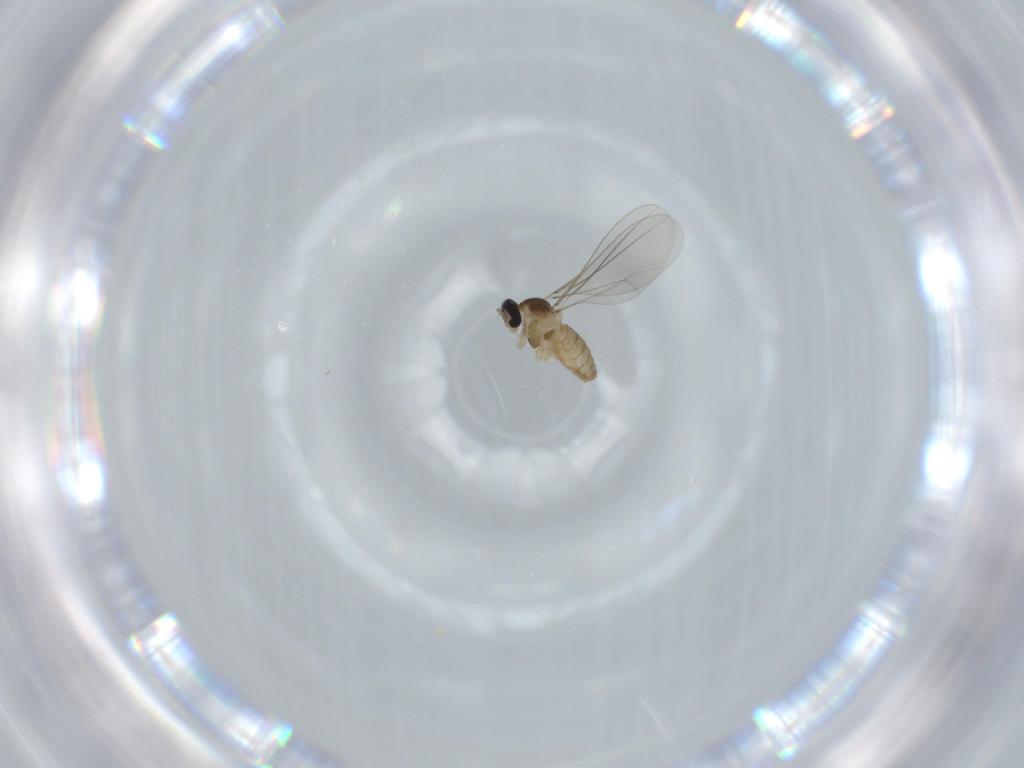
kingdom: Animalia
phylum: Arthropoda
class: Insecta
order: Diptera
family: Cecidomyiidae
